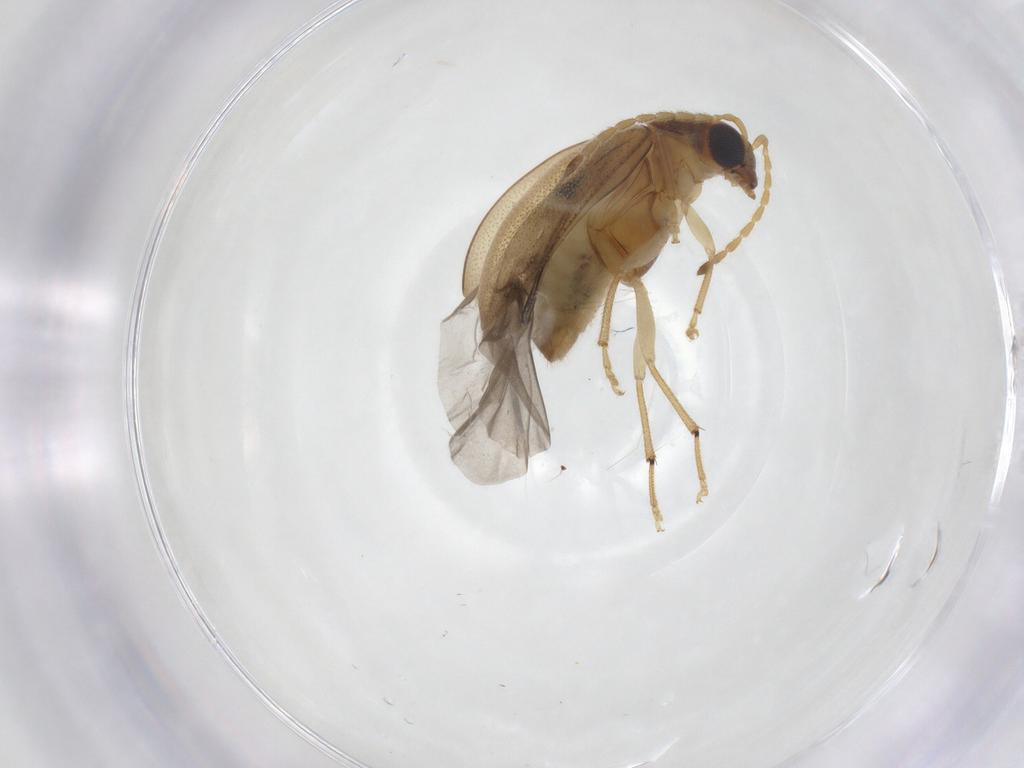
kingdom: Animalia
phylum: Arthropoda
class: Insecta
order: Coleoptera
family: Chrysomelidae
